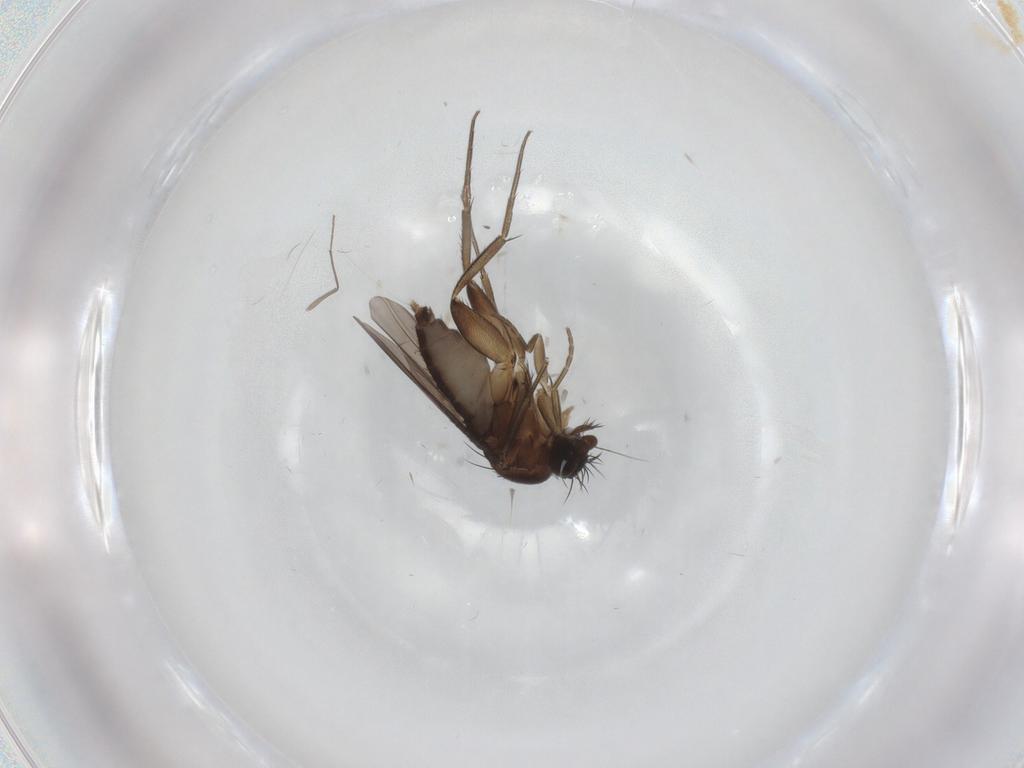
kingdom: Animalia
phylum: Arthropoda
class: Insecta
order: Diptera
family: Phoridae
